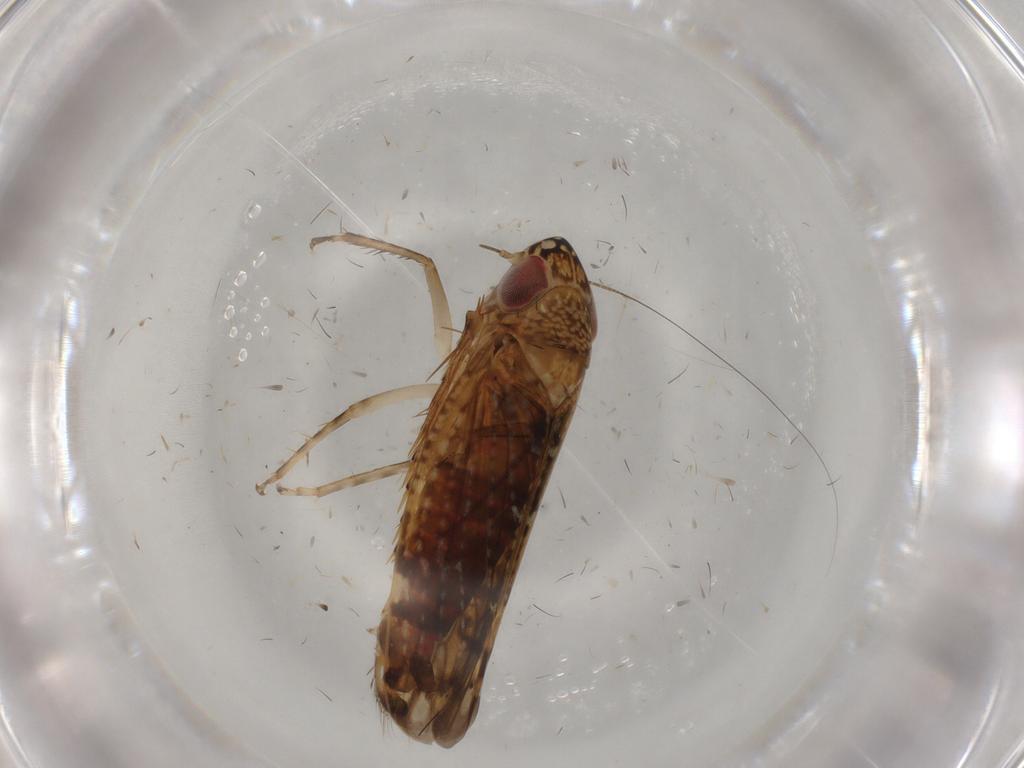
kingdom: Animalia
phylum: Arthropoda
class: Insecta
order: Hemiptera
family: Cicadellidae
